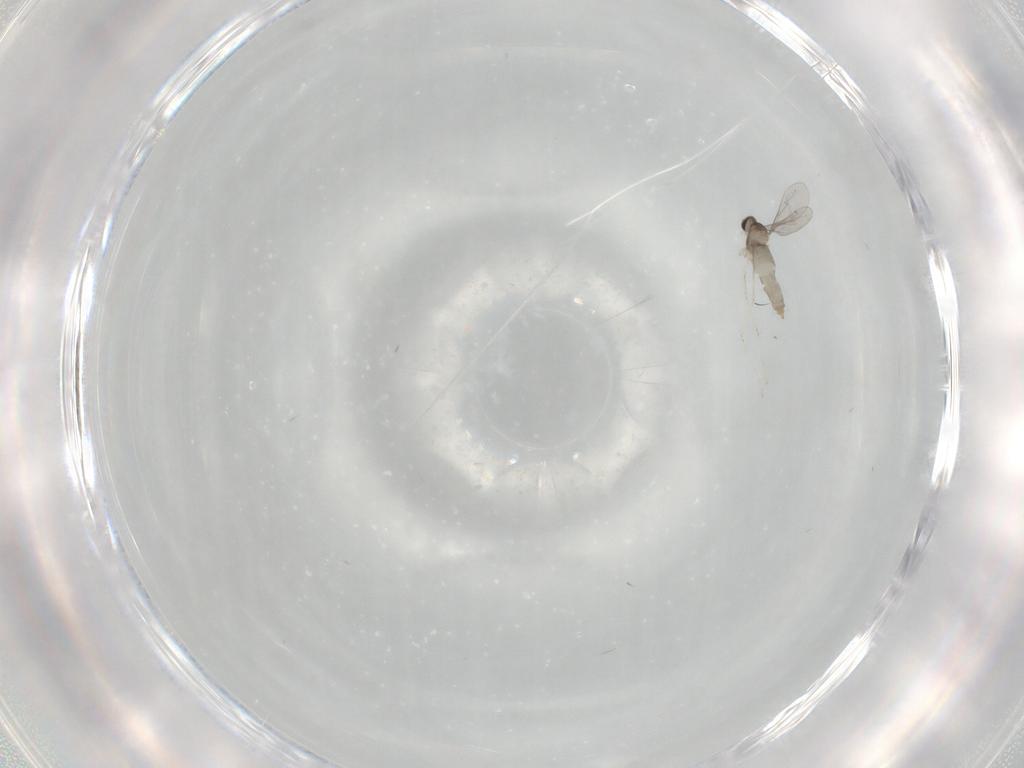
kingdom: Animalia
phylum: Arthropoda
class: Insecta
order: Diptera
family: Cecidomyiidae
